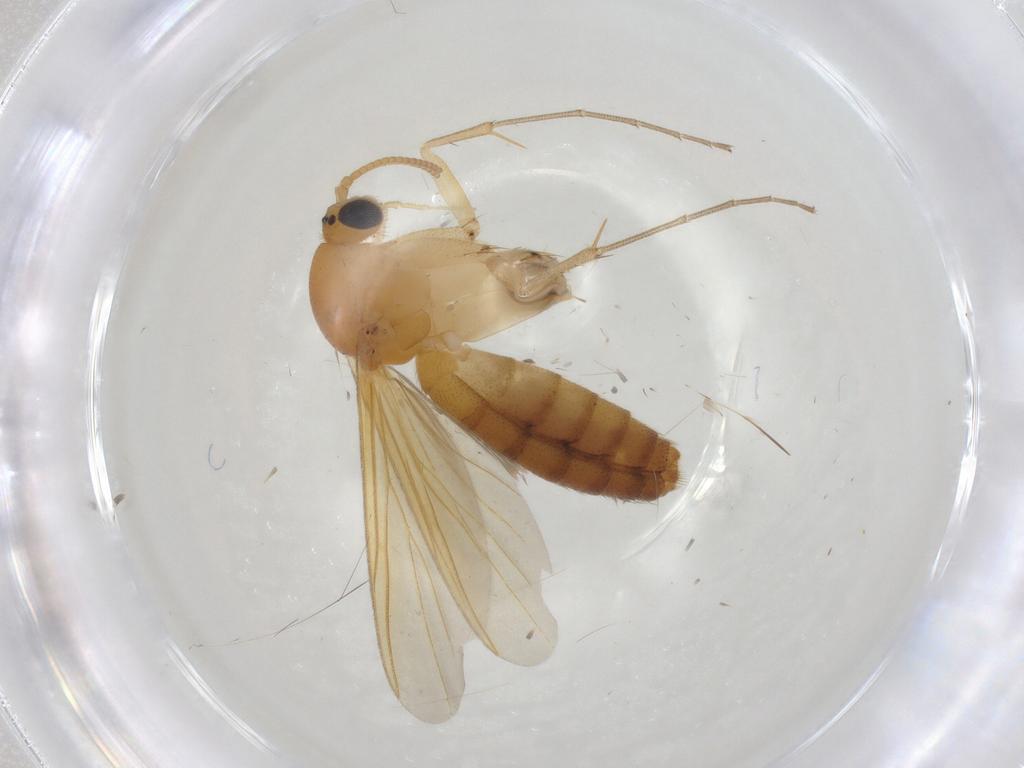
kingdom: Animalia
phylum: Arthropoda
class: Insecta
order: Diptera
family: Mycetophilidae
